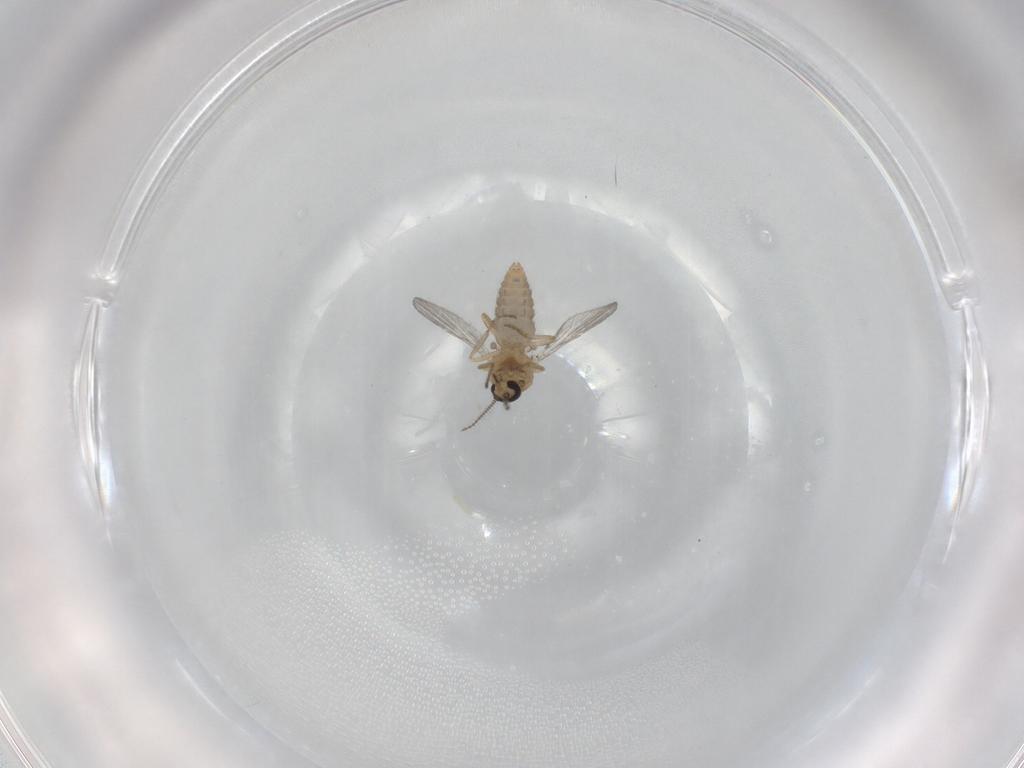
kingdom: Animalia
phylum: Arthropoda
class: Insecta
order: Diptera
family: Ceratopogonidae
